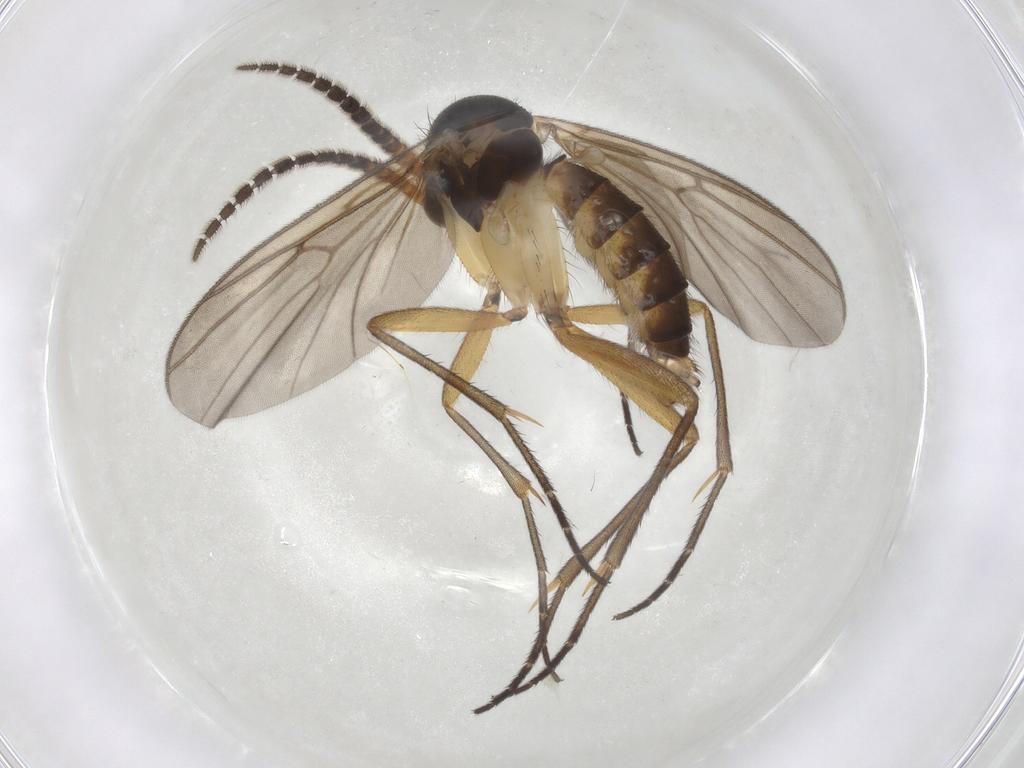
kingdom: Animalia
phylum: Arthropoda
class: Insecta
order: Diptera
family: Mycetophilidae
